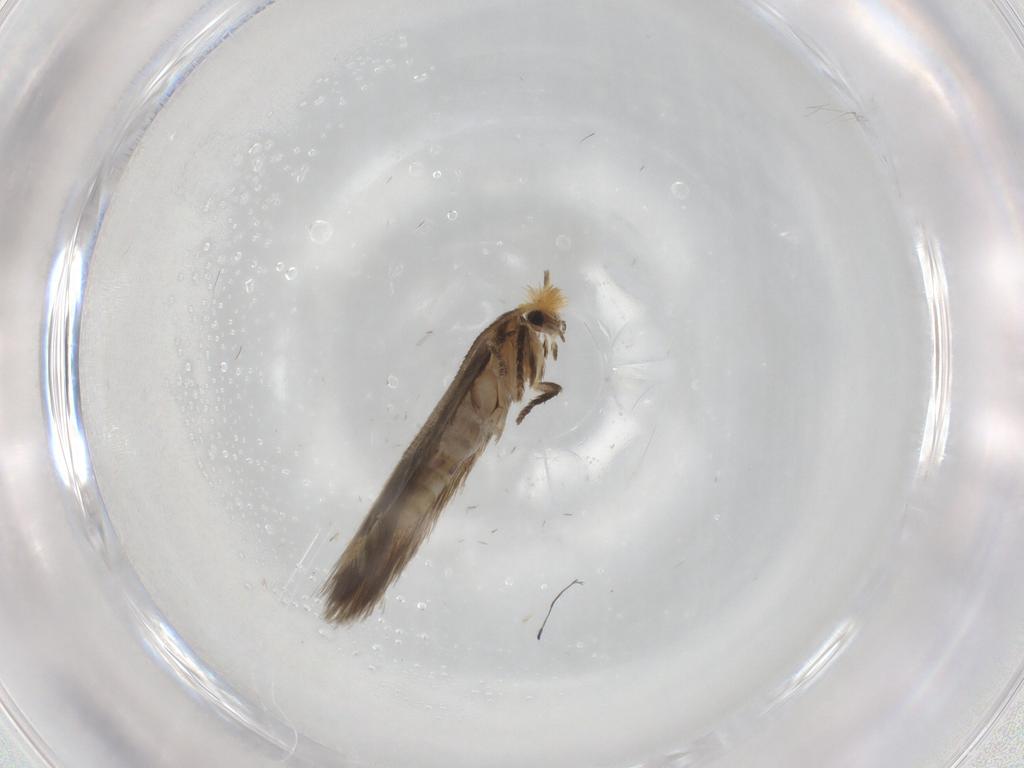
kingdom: Animalia
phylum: Arthropoda
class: Insecta
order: Lepidoptera
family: Nepticulidae
